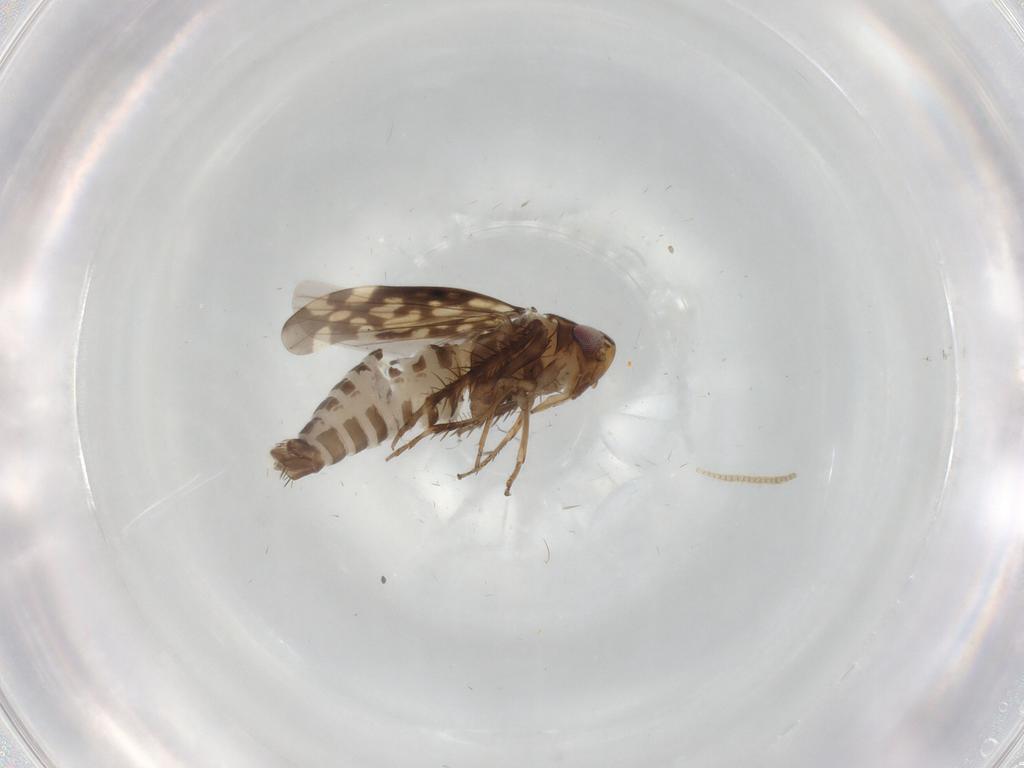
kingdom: Animalia
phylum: Arthropoda
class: Insecta
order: Hemiptera
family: Cicadellidae
